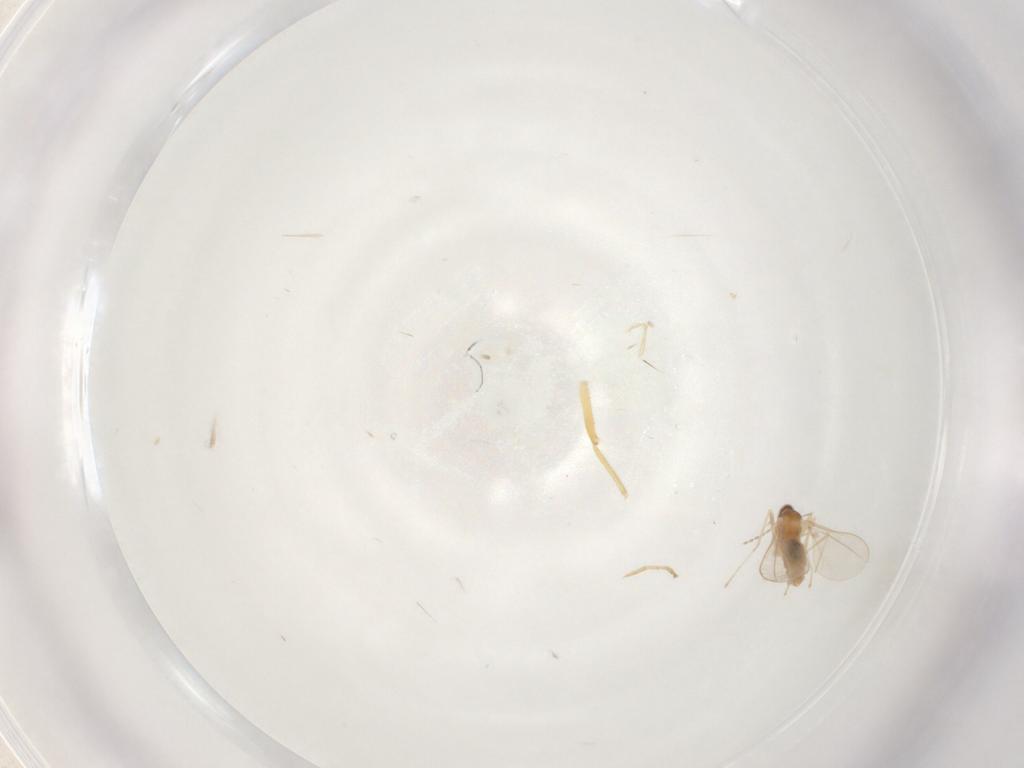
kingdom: Animalia
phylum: Arthropoda
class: Insecta
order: Diptera
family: Cecidomyiidae
